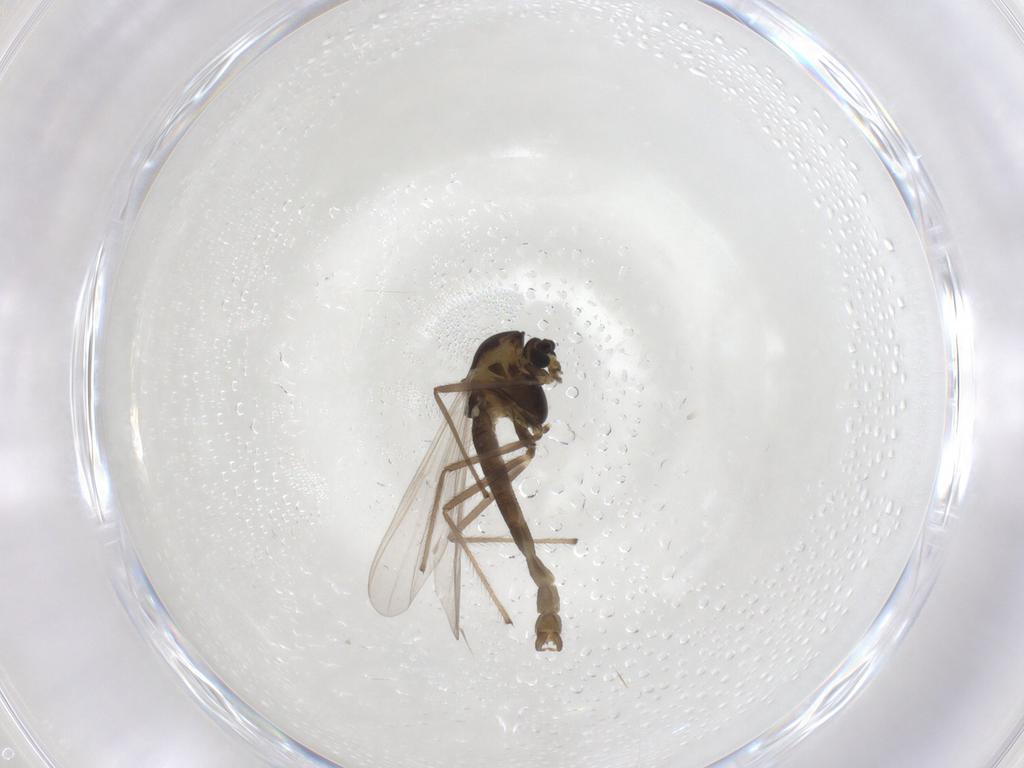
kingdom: Animalia
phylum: Arthropoda
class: Insecta
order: Diptera
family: Chironomidae
